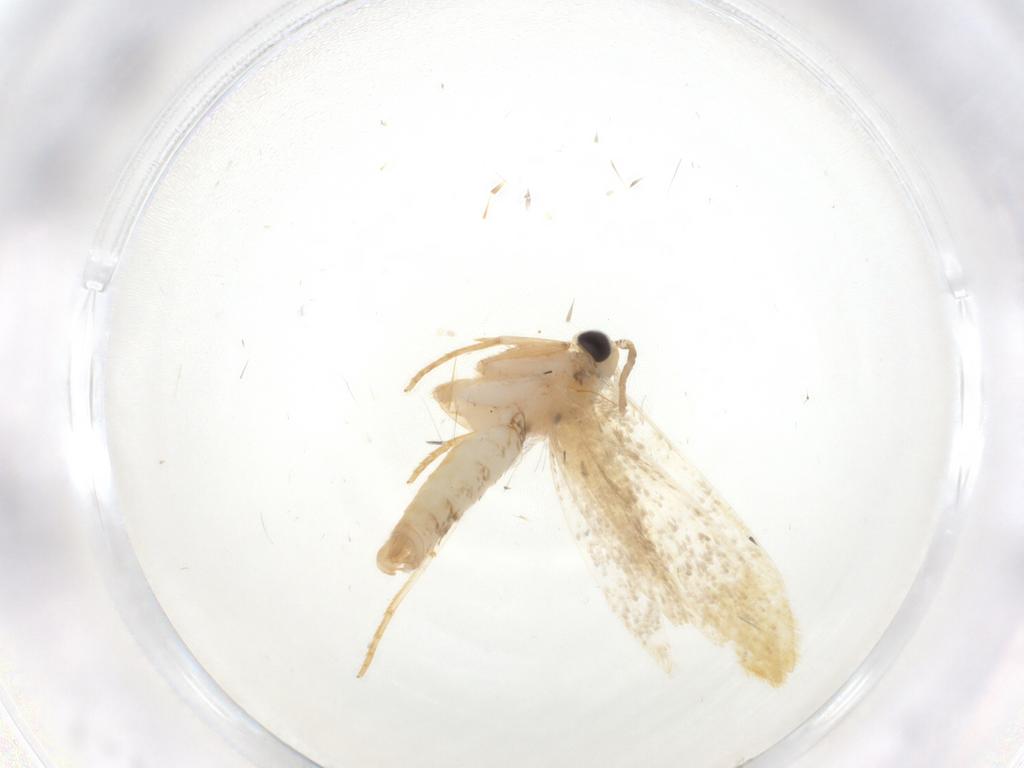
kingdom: Animalia
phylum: Arthropoda
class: Insecta
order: Lepidoptera
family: Tineidae
